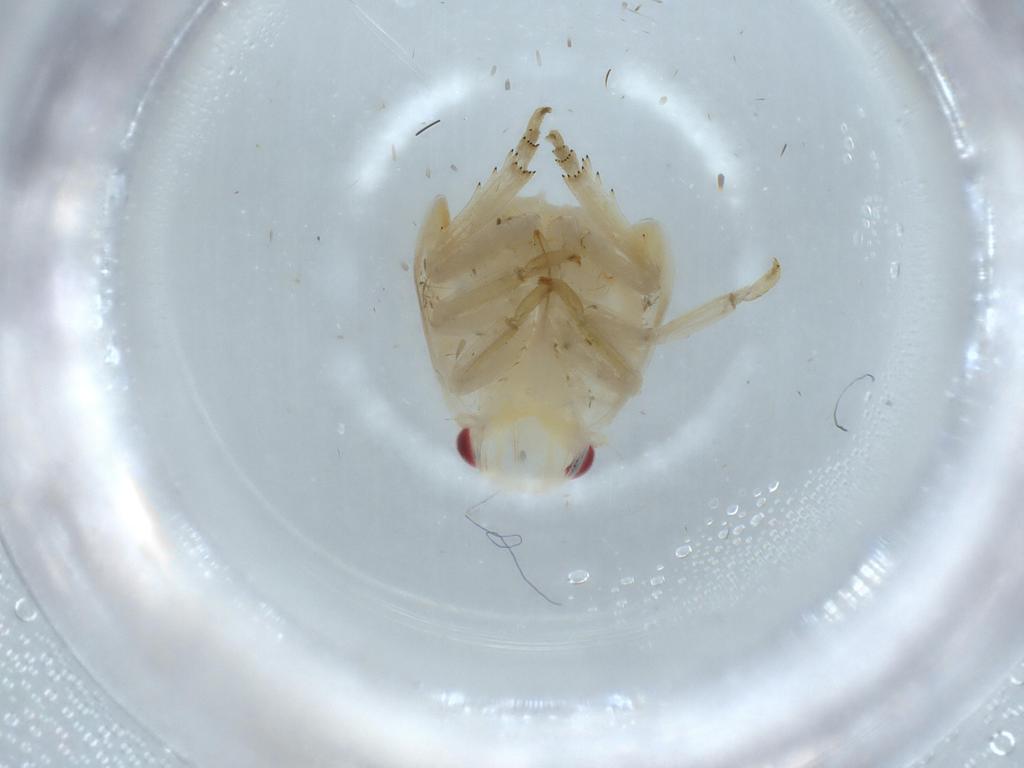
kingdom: Animalia
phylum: Arthropoda
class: Insecta
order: Hemiptera
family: Flatidae
